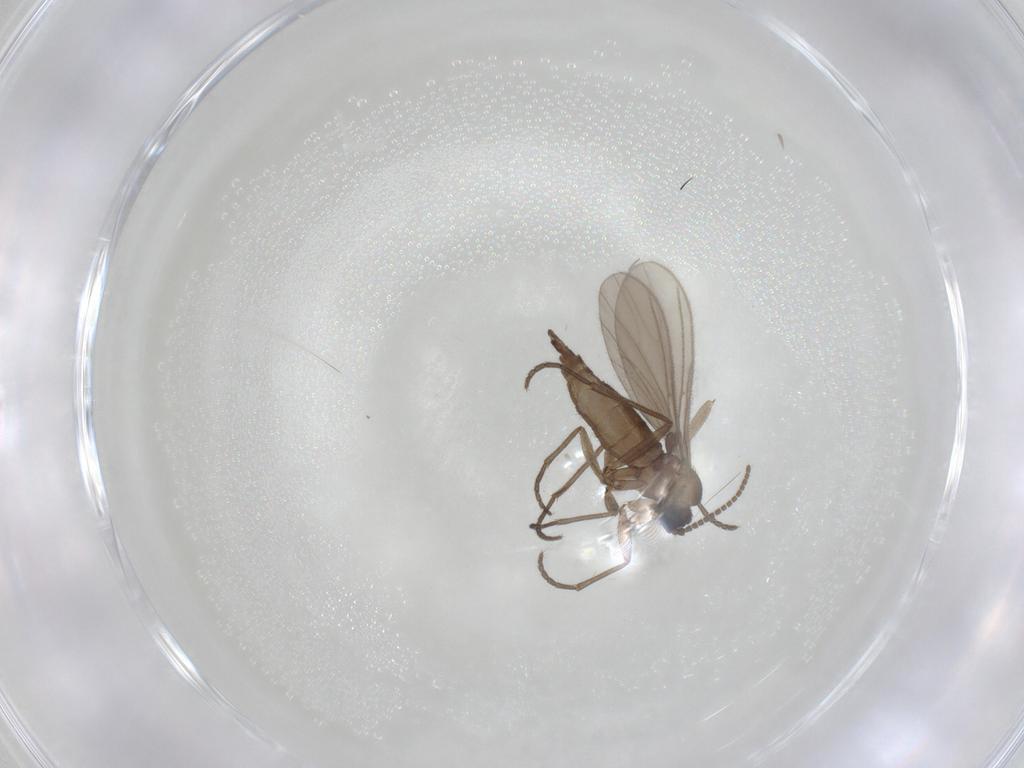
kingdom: Animalia
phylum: Arthropoda
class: Insecta
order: Diptera
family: Sciaridae
